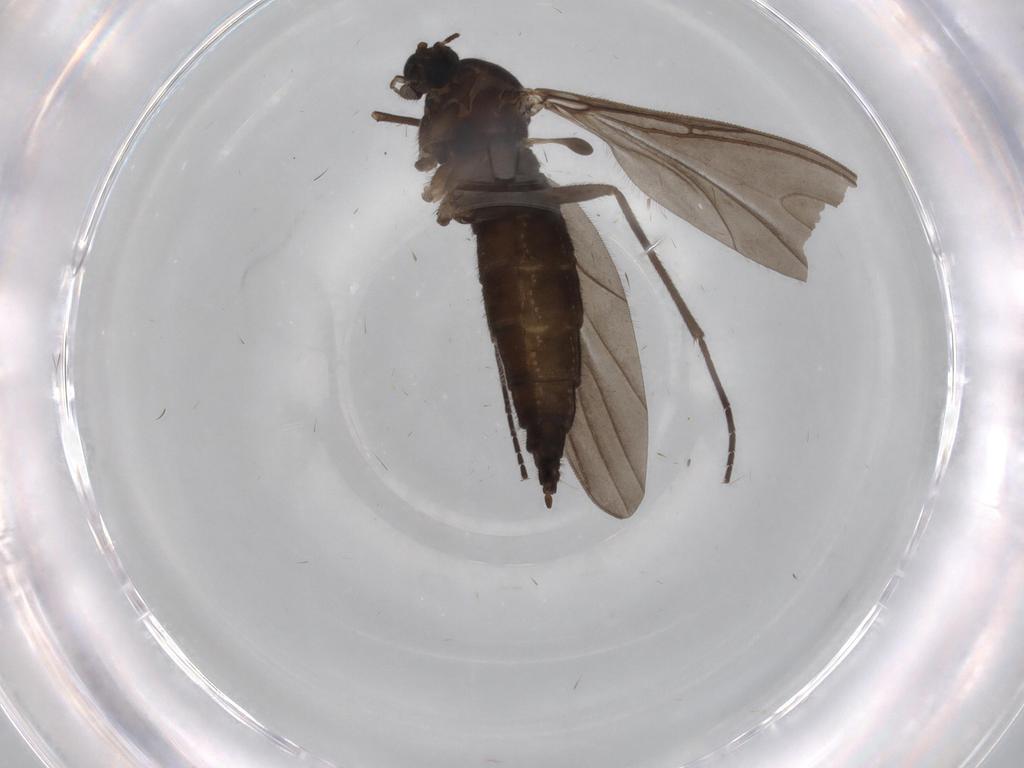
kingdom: Animalia
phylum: Arthropoda
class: Insecta
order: Diptera
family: Sciaridae
